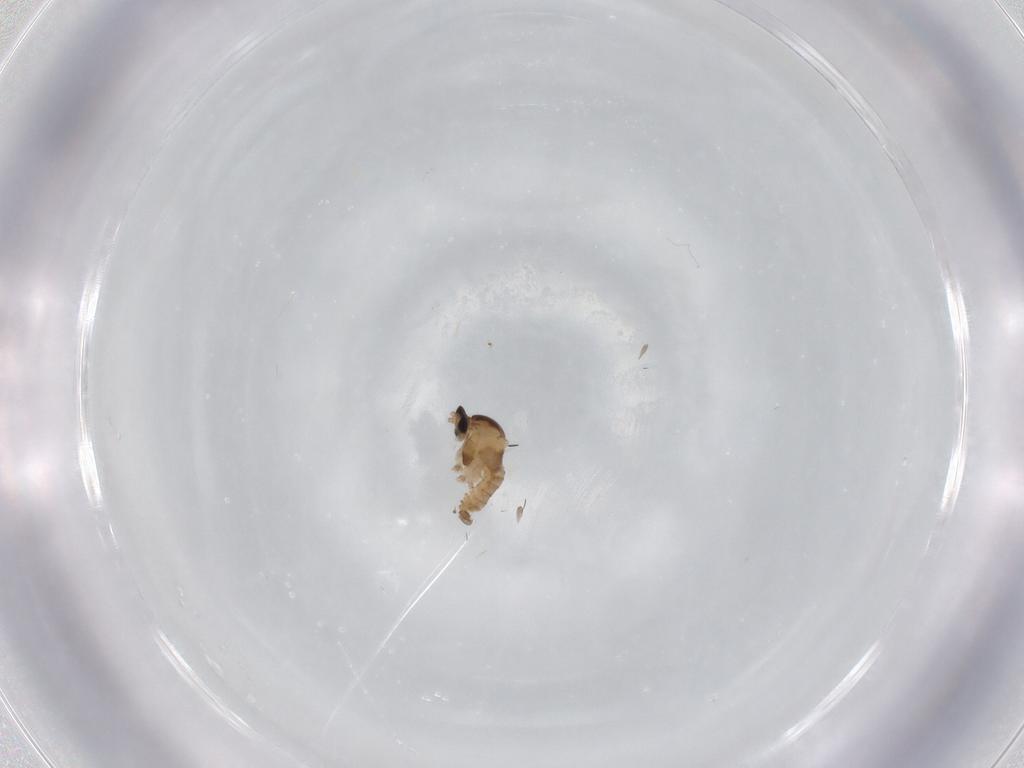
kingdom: Animalia
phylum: Arthropoda
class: Insecta
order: Diptera
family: Cecidomyiidae
